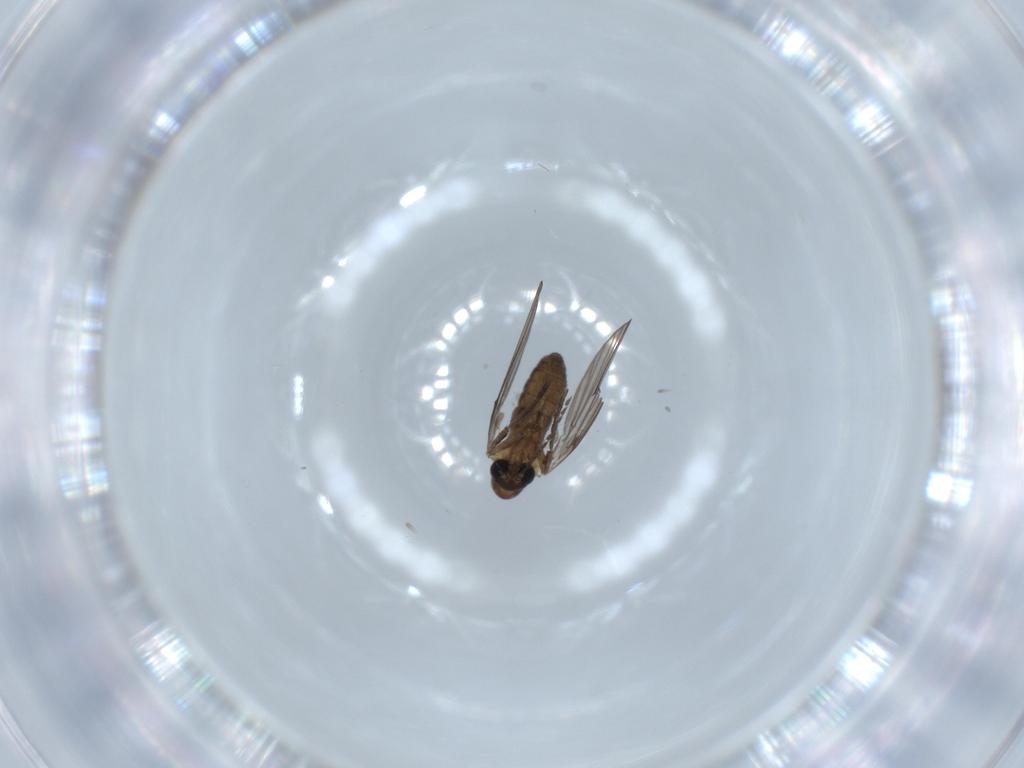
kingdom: Animalia
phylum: Arthropoda
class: Insecta
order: Diptera
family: Psychodidae
